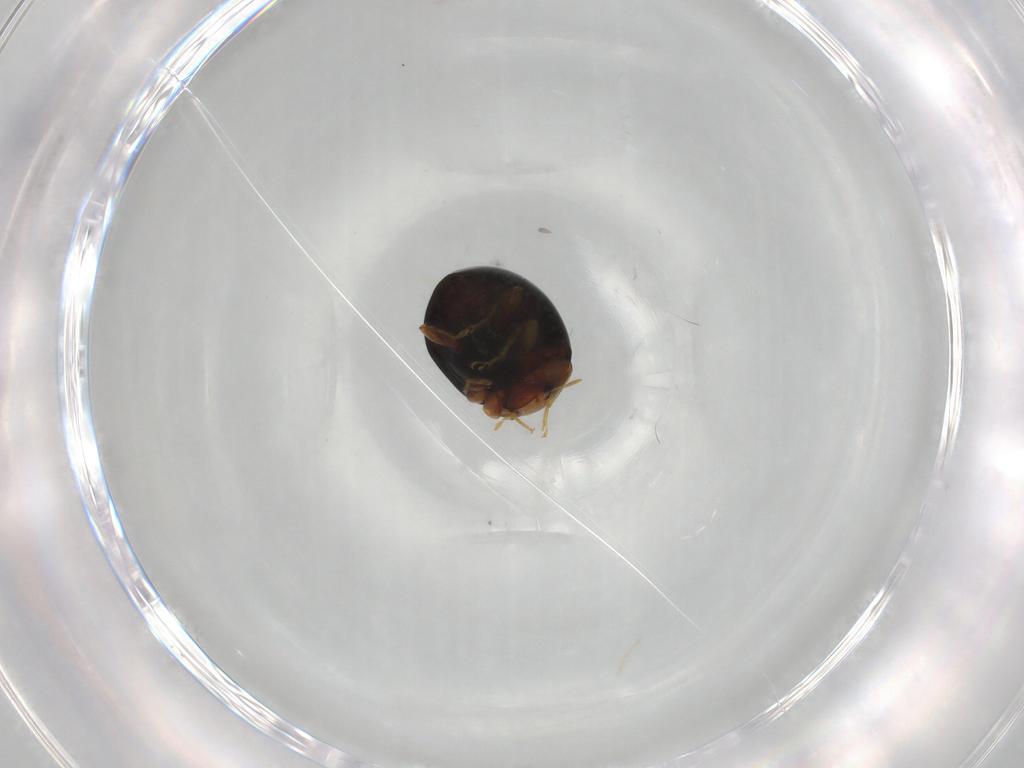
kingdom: Animalia
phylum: Arthropoda
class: Insecta
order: Coleoptera
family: Coccinellidae
